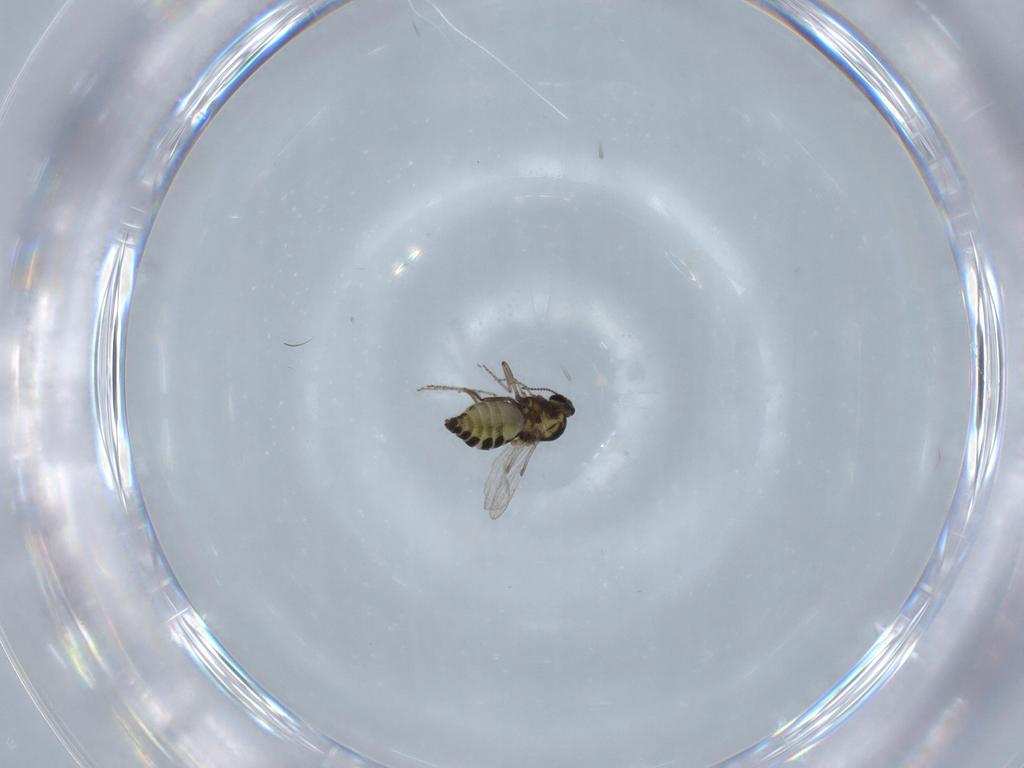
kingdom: Animalia
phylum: Arthropoda
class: Insecta
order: Diptera
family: Ceratopogonidae
